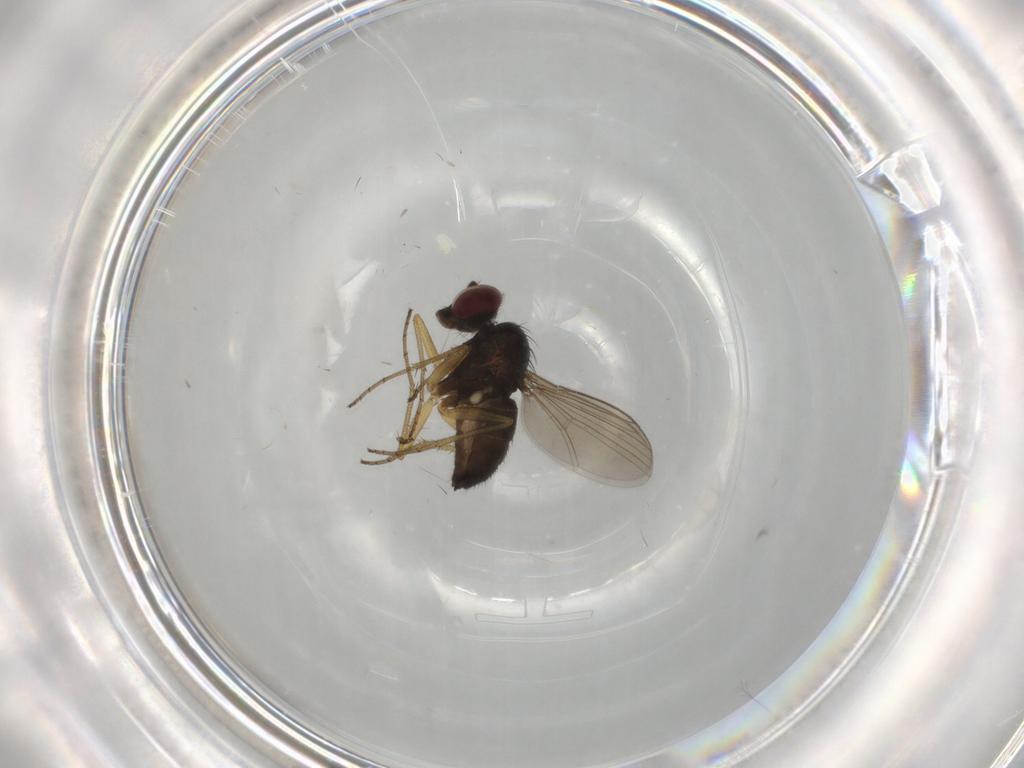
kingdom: Animalia
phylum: Arthropoda
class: Insecta
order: Diptera
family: Dolichopodidae
